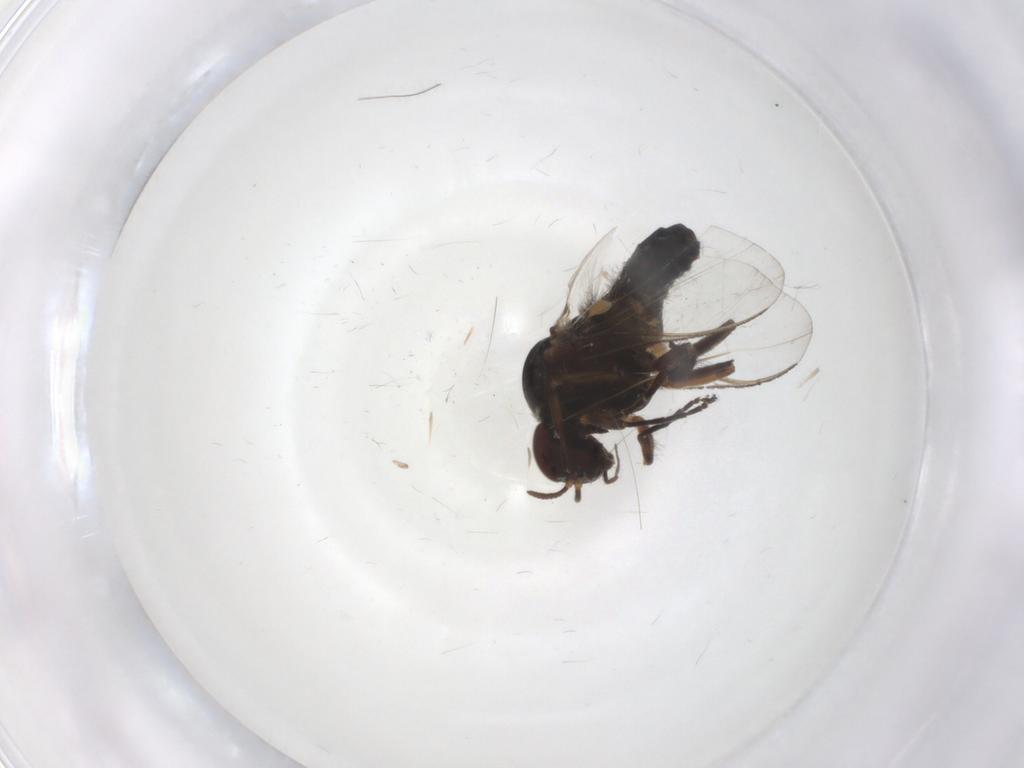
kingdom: Animalia
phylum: Arthropoda
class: Insecta
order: Diptera
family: Simuliidae
